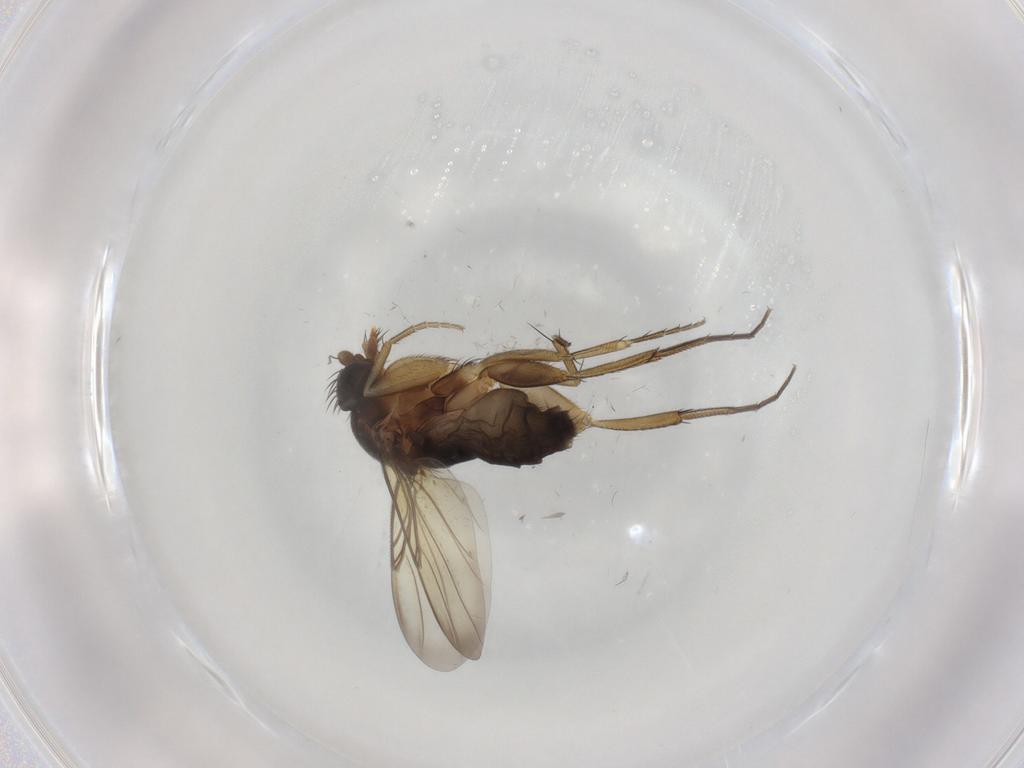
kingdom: Animalia
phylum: Arthropoda
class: Insecta
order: Diptera
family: Phoridae
